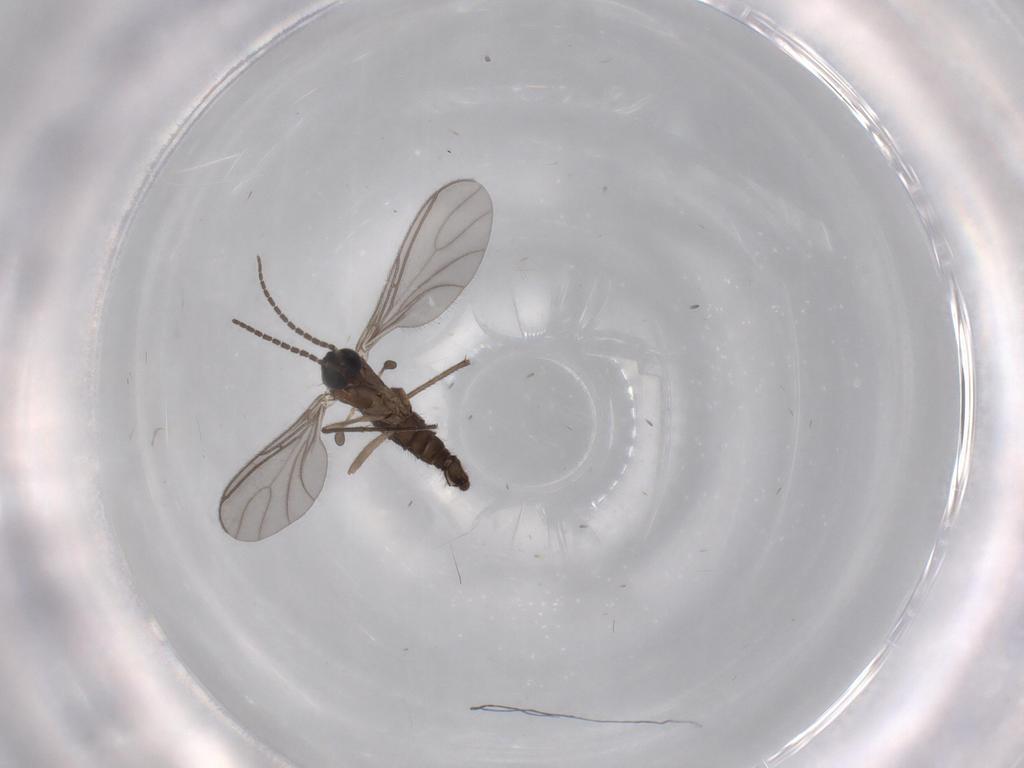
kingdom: Animalia
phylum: Arthropoda
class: Insecta
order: Diptera
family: Sciaridae
